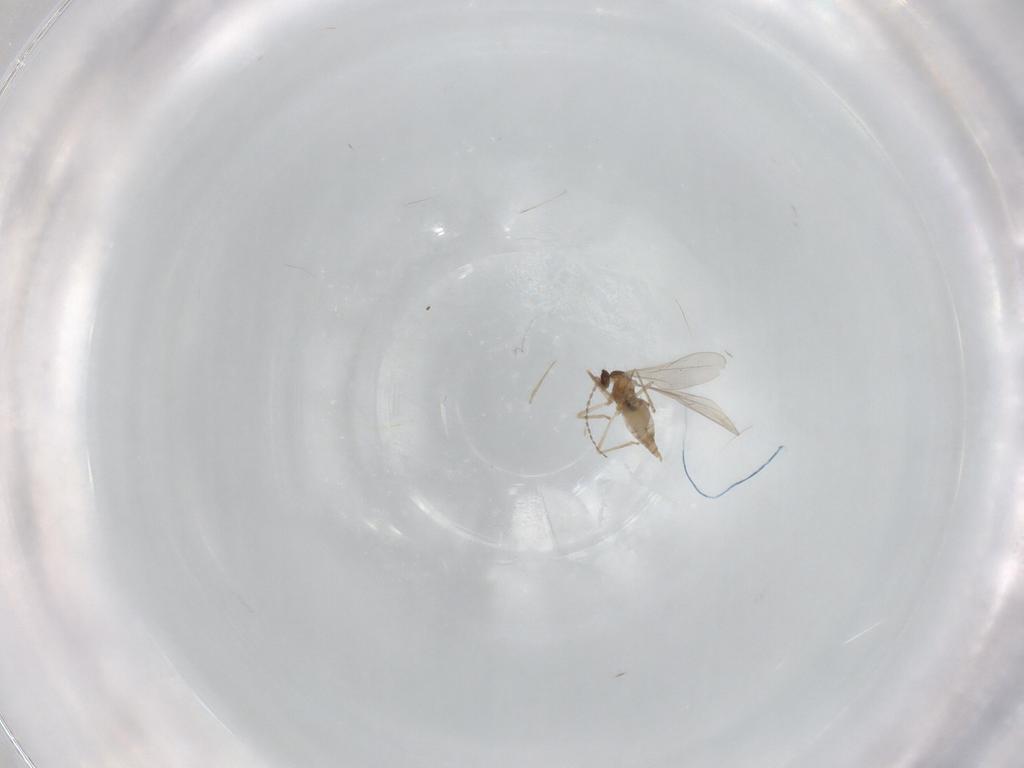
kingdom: Animalia
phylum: Arthropoda
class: Insecta
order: Diptera
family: Cecidomyiidae
